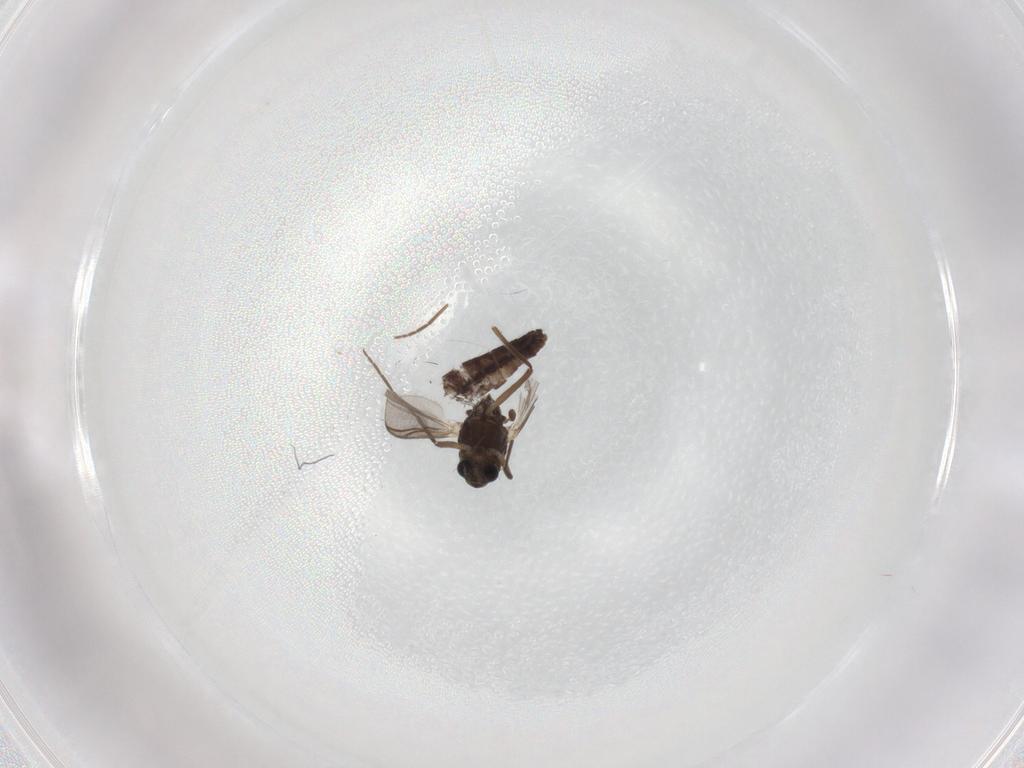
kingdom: Animalia
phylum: Arthropoda
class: Insecta
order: Diptera
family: Chironomidae
